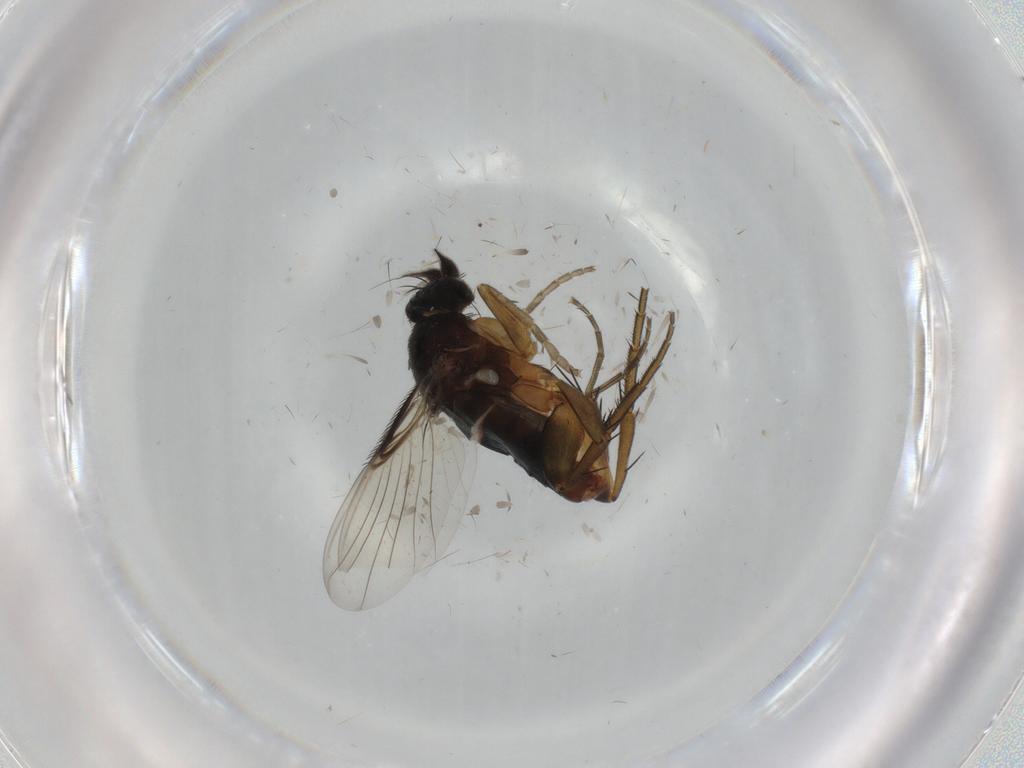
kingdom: Animalia
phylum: Arthropoda
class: Insecta
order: Diptera
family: Phoridae
